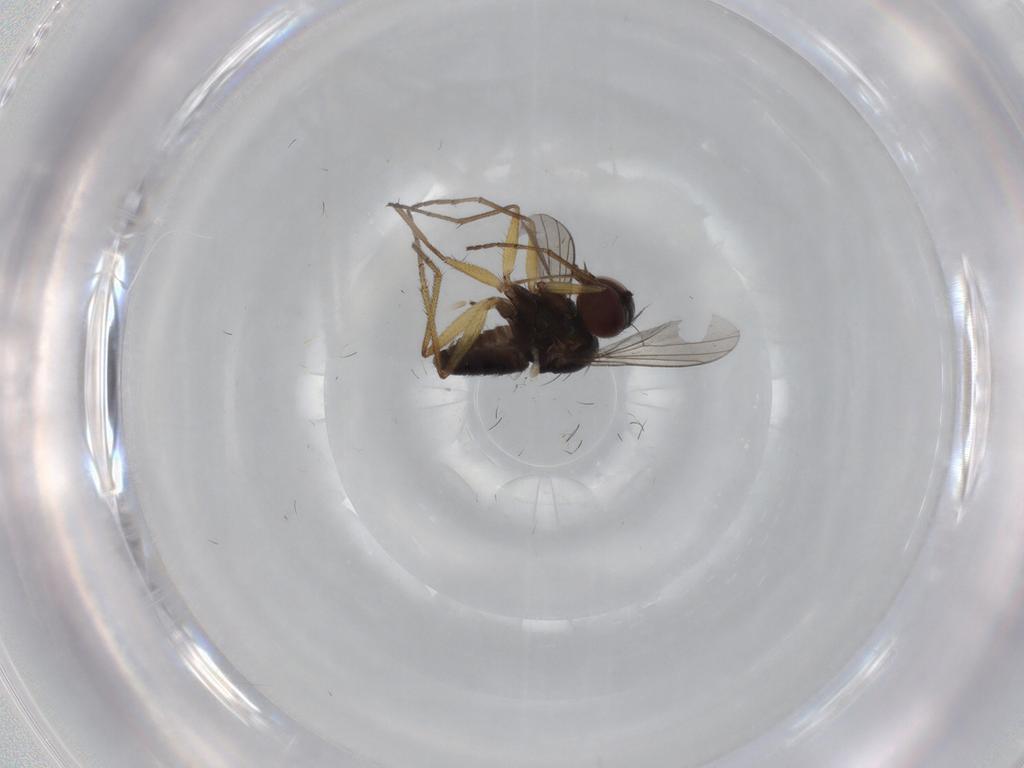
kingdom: Animalia
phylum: Arthropoda
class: Insecta
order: Diptera
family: Dolichopodidae
